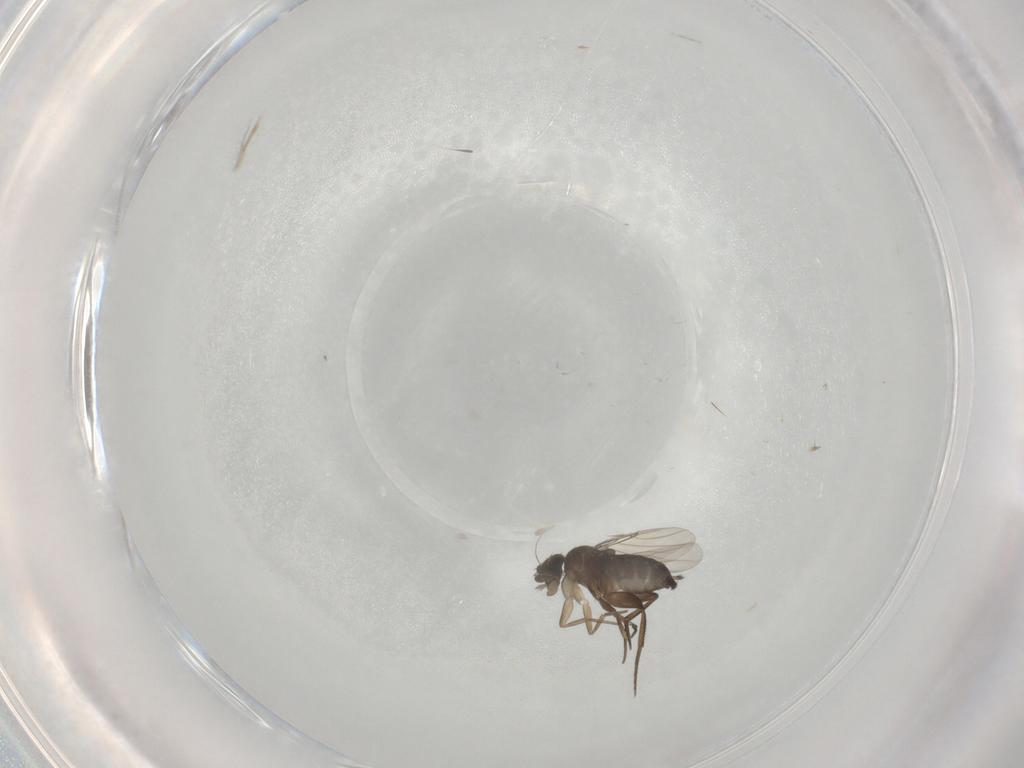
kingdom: Animalia
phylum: Arthropoda
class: Insecta
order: Diptera
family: Phoridae
